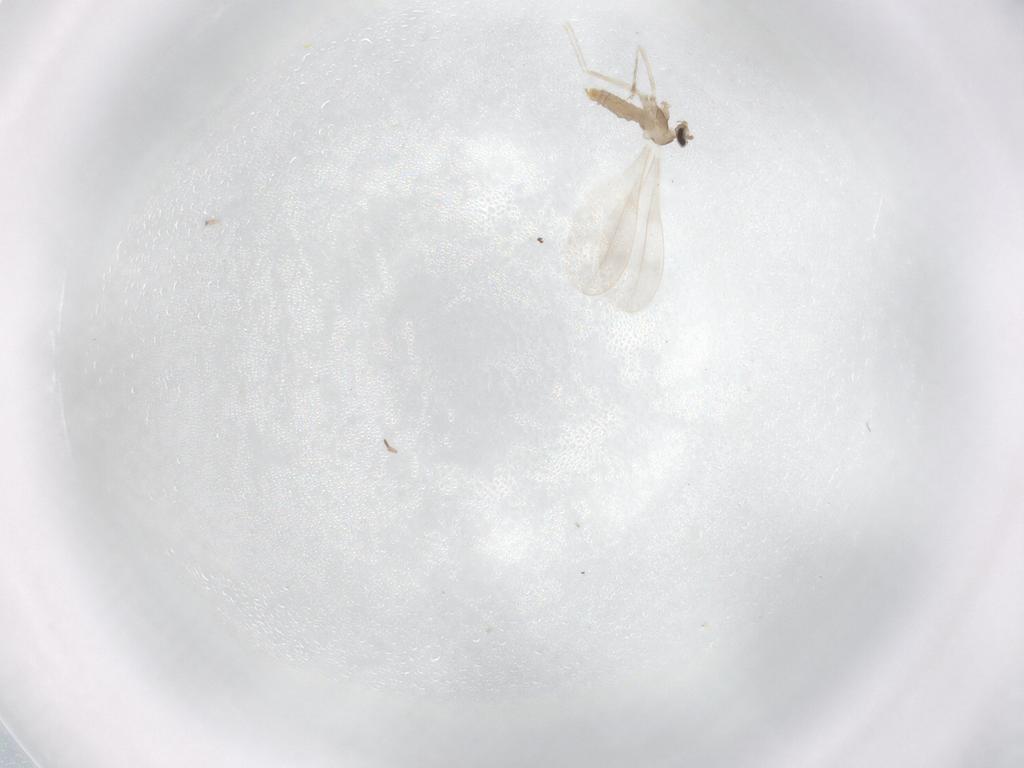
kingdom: Animalia
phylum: Arthropoda
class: Insecta
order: Diptera
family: Cecidomyiidae
